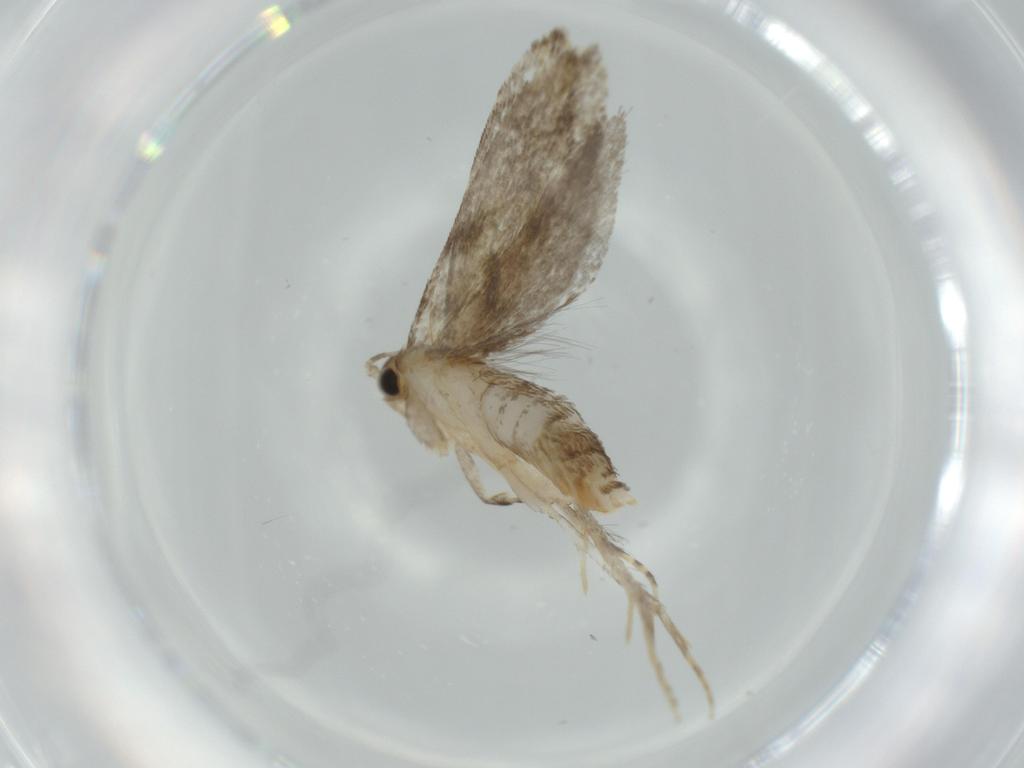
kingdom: Animalia
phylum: Arthropoda
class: Insecta
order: Lepidoptera
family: Tineidae
